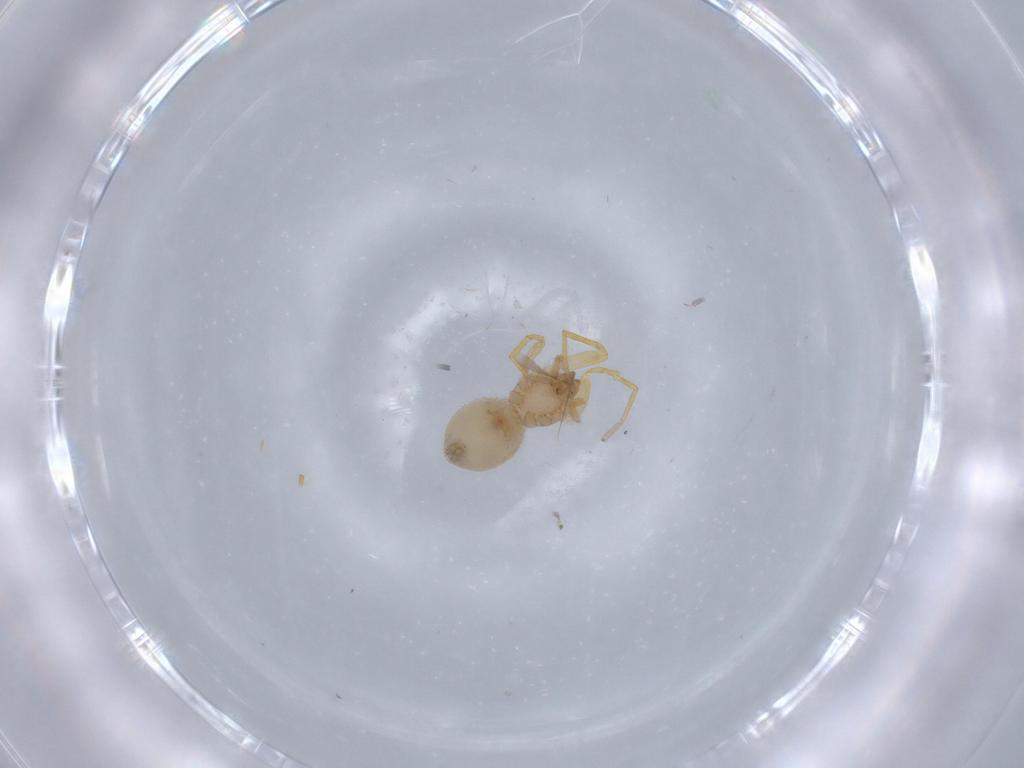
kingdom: Animalia
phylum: Arthropoda
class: Arachnida
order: Araneae
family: Oonopidae
